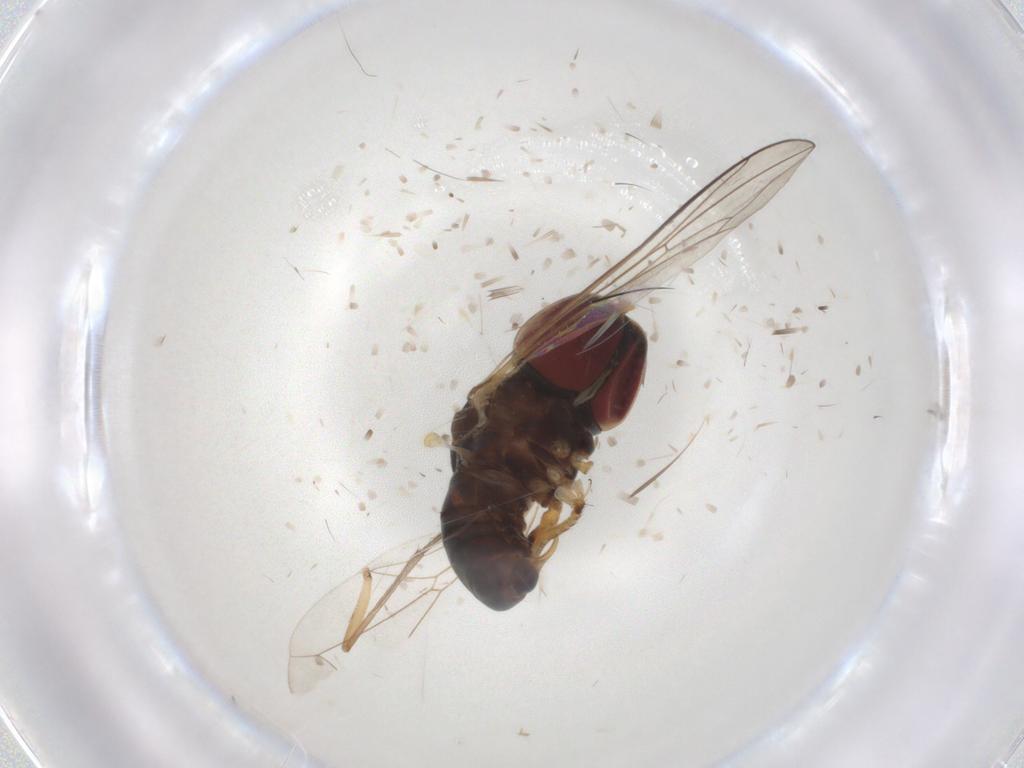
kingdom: Animalia
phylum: Arthropoda
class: Insecta
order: Diptera
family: Pipunculidae
